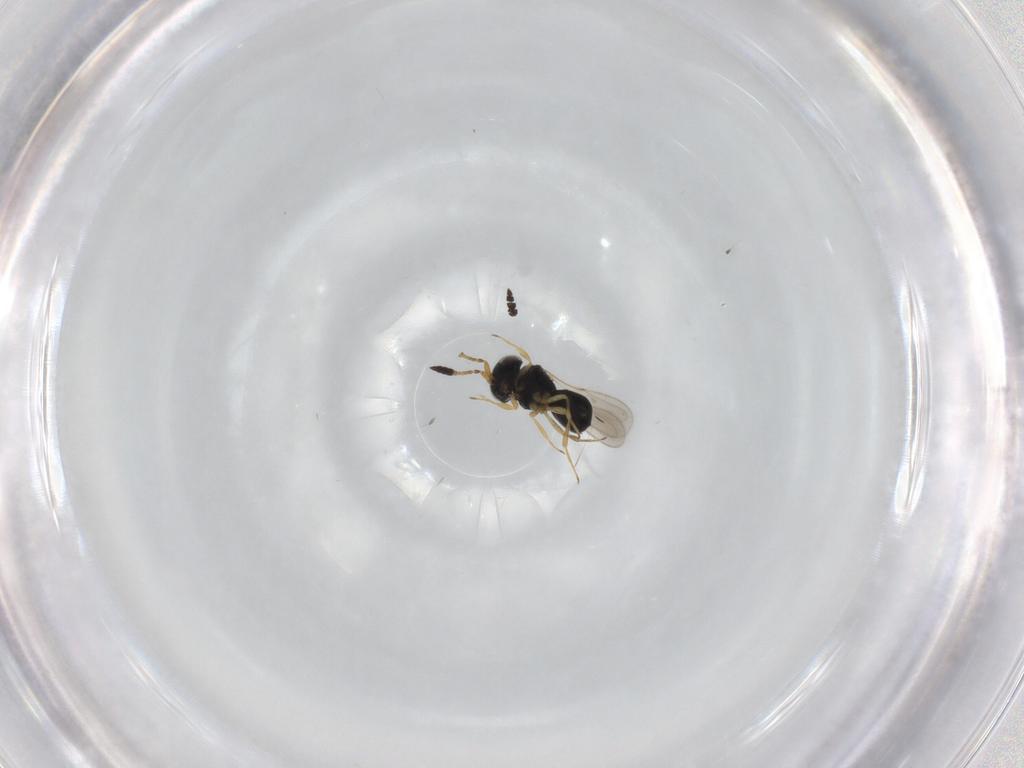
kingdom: Animalia
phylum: Arthropoda
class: Insecta
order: Hymenoptera
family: Scelionidae
